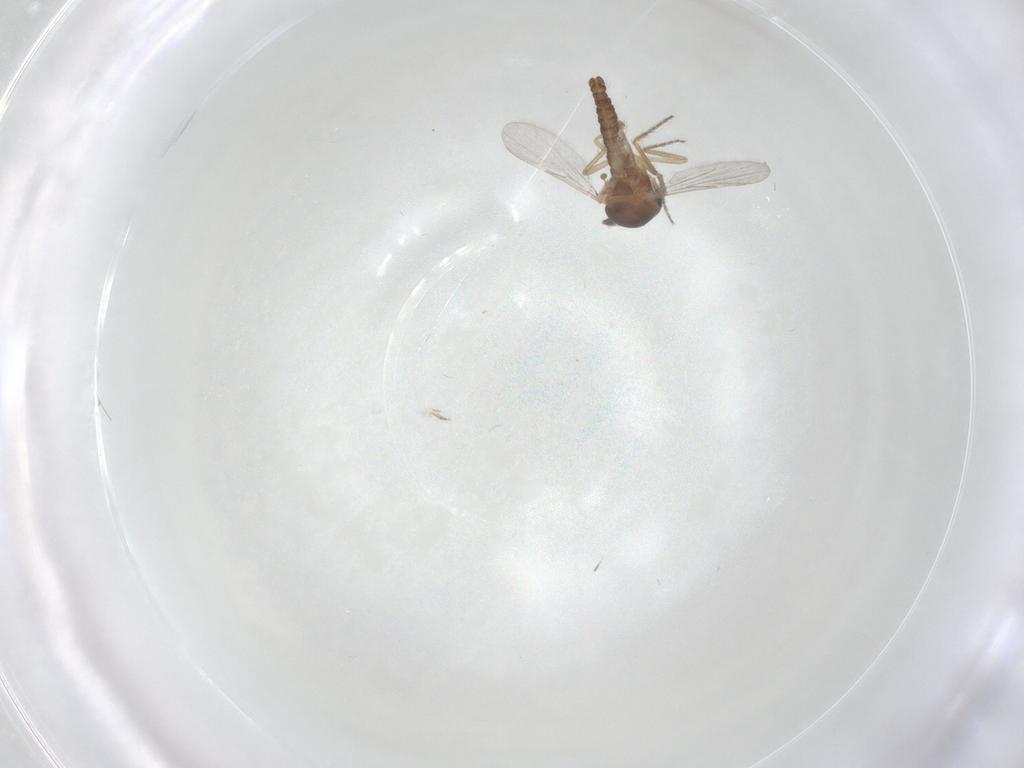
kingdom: Animalia
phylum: Arthropoda
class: Insecta
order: Diptera
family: Ceratopogonidae
